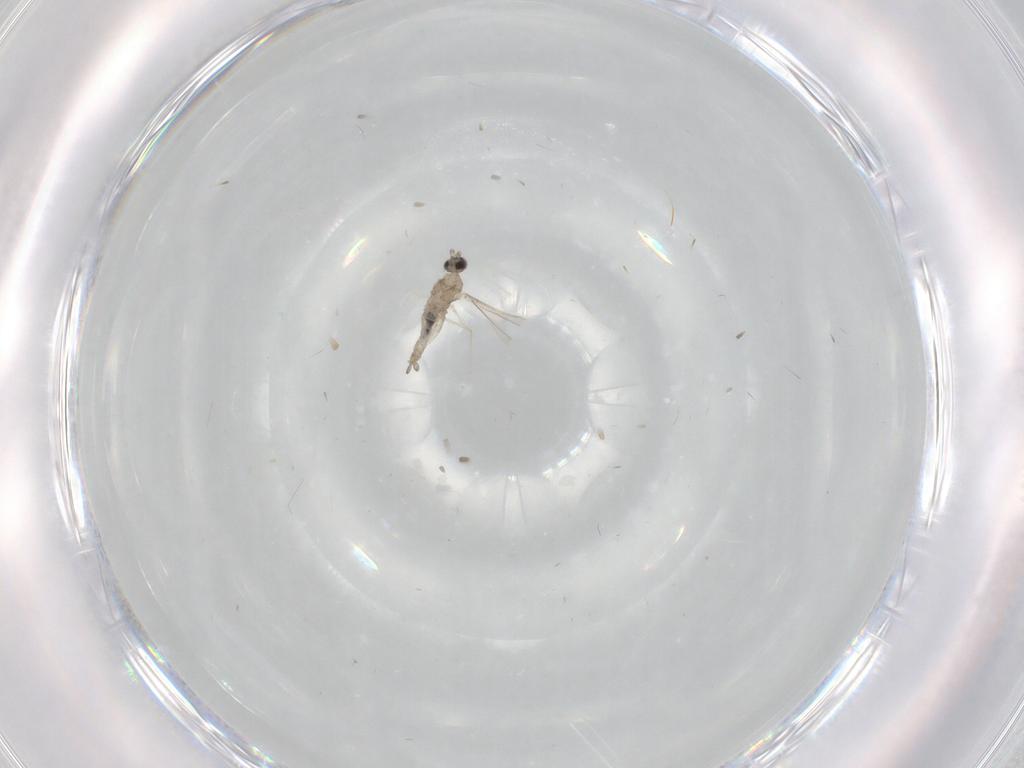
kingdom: Animalia
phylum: Arthropoda
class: Insecta
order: Diptera
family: Cecidomyiidae
